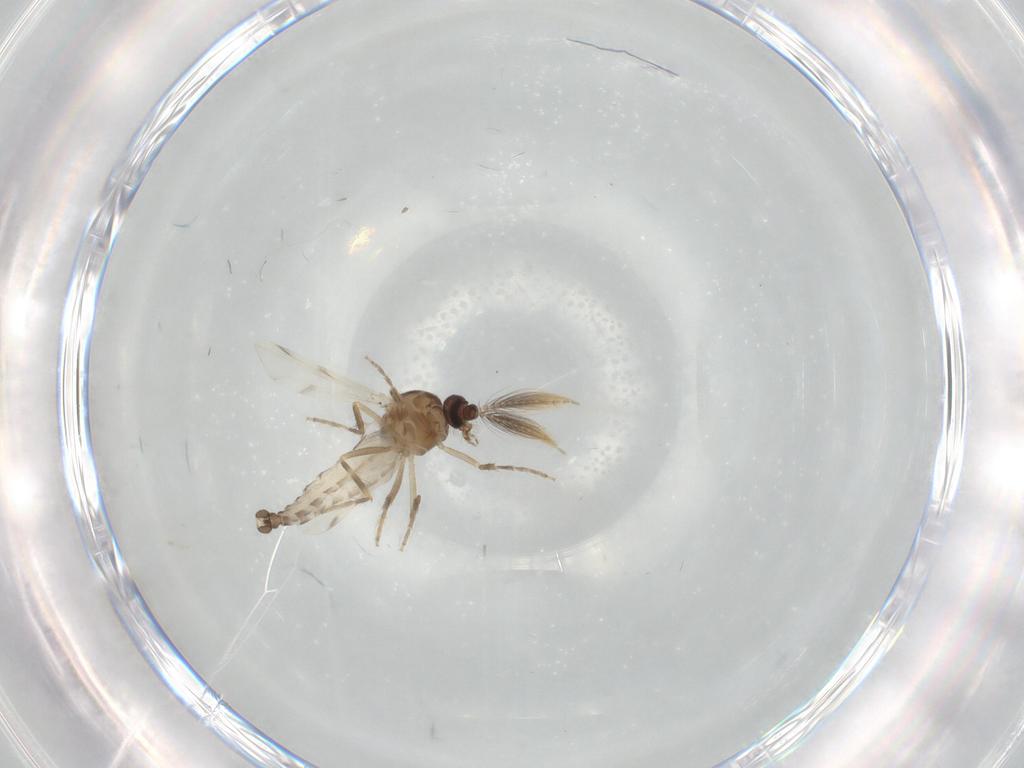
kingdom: Animalia
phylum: Arthropoda
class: Insecta
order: Diptera
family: Ceratopogonidae
